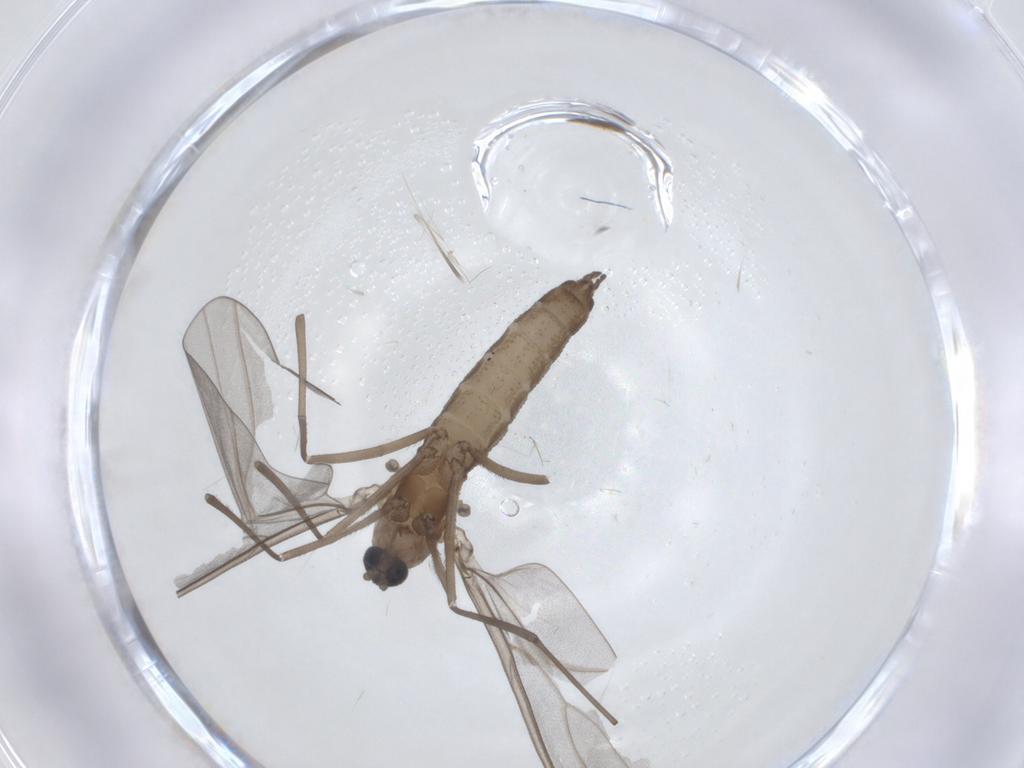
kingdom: Animalia
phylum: Arthropoda
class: Insecta
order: Diptera
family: Cecidomyiidae
